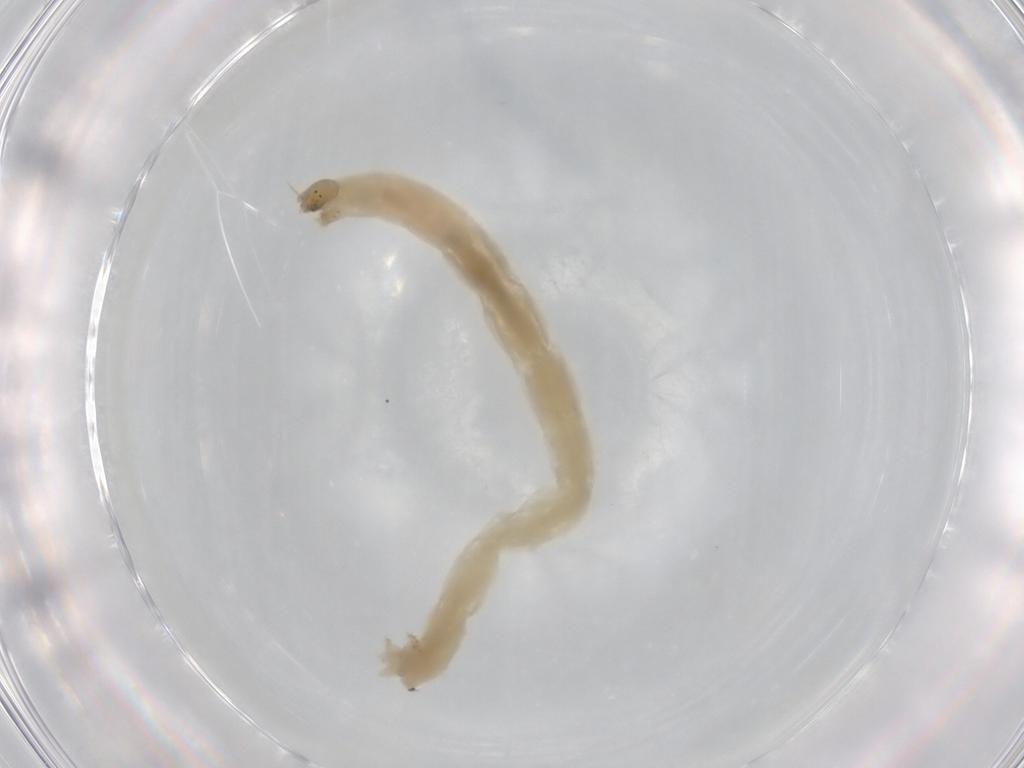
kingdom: Animalia
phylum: Arthropoda
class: Insecta
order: Diptera
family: Chironomidae
